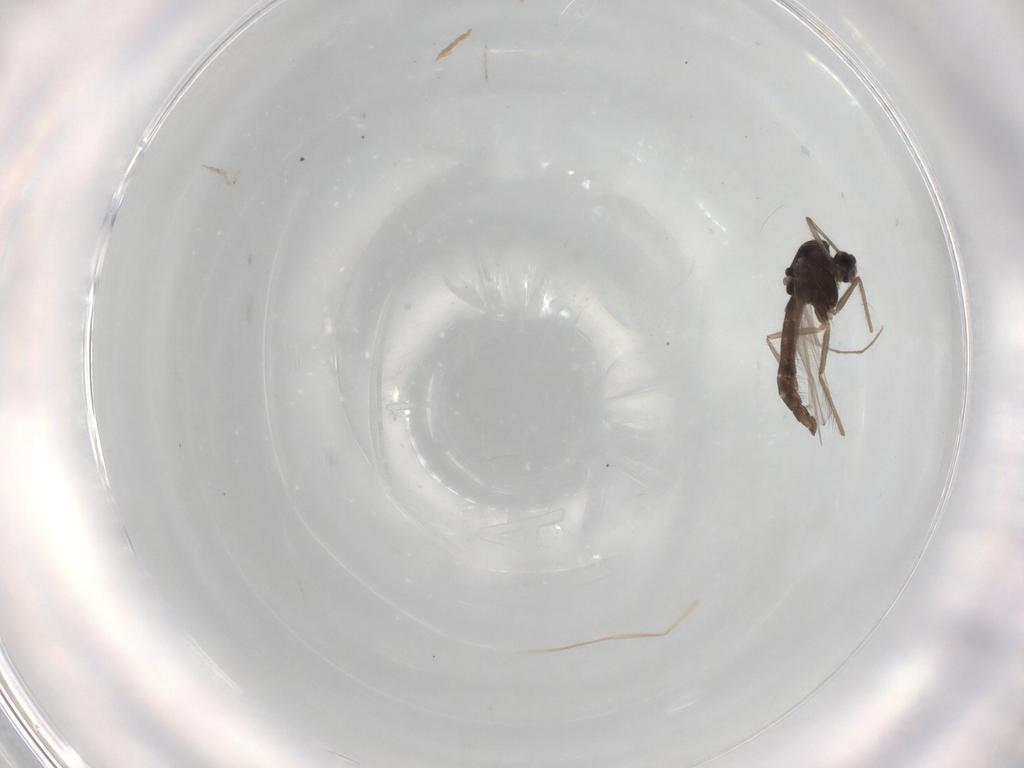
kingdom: Animalia
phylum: Arthropoda
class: Insecta
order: Diptera
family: Chironomidae
